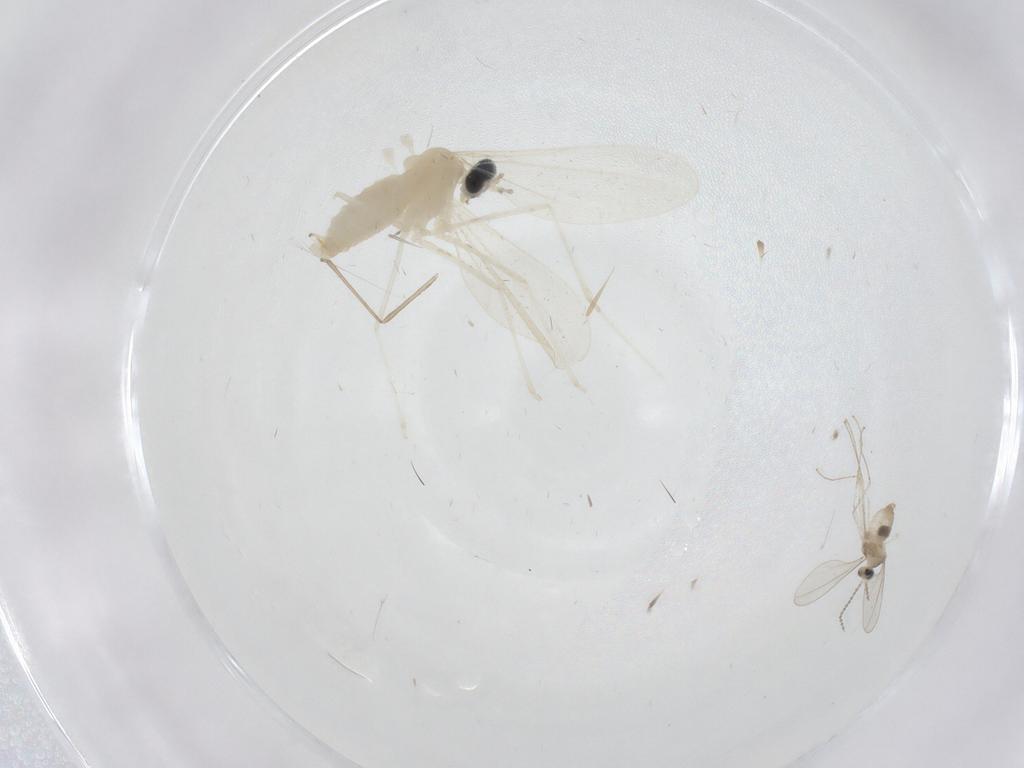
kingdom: Animalia
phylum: Arthropoda
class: Insecta
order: Diptera
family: Cecidomyiidae
